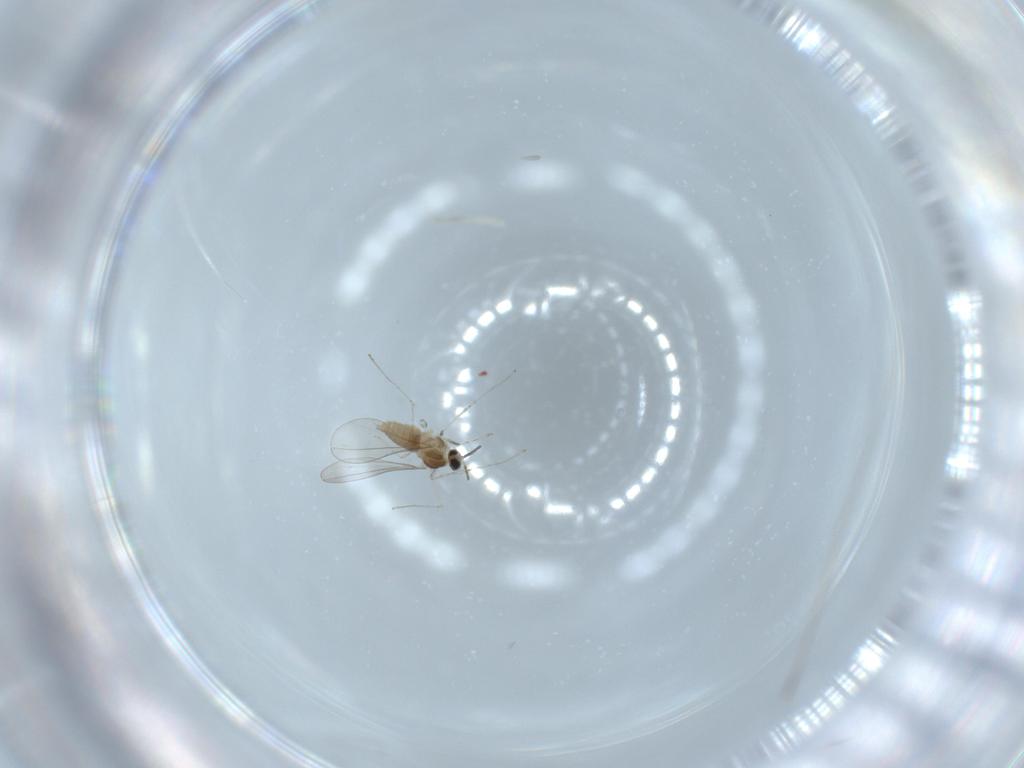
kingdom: Animalia
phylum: Arthropoda
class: Insecta
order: Diptera
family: Cecidomyiidae
